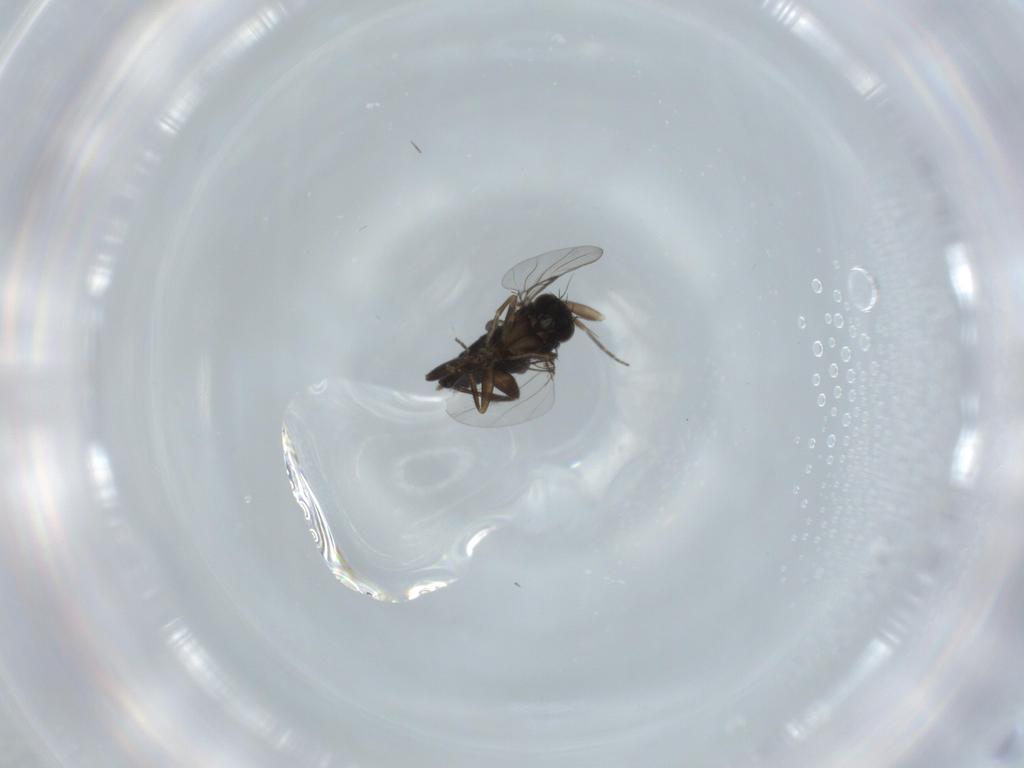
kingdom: Animalia
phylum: Arthropoda
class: Insecta
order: Diptera
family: Phoridae
